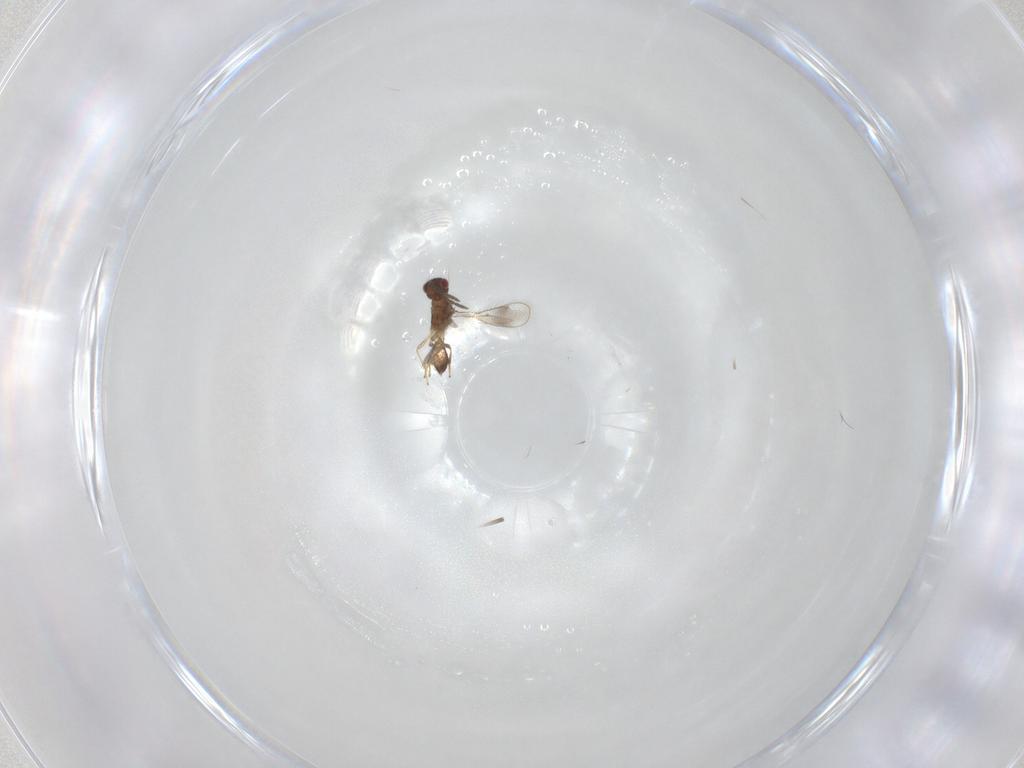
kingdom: Animalia
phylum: Arthropoda
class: Insecta
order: Hymenoptera
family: Pteromalidae
